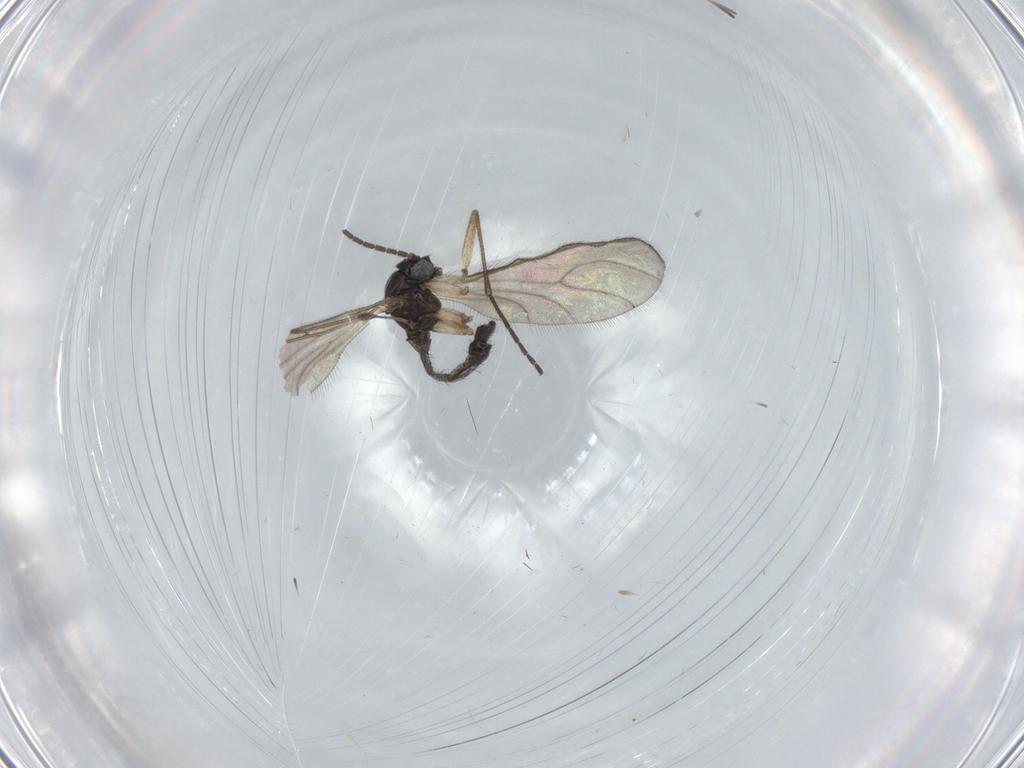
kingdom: Animalia
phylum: Arthropoda
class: Insecta
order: Diptera
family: Sciaridae
